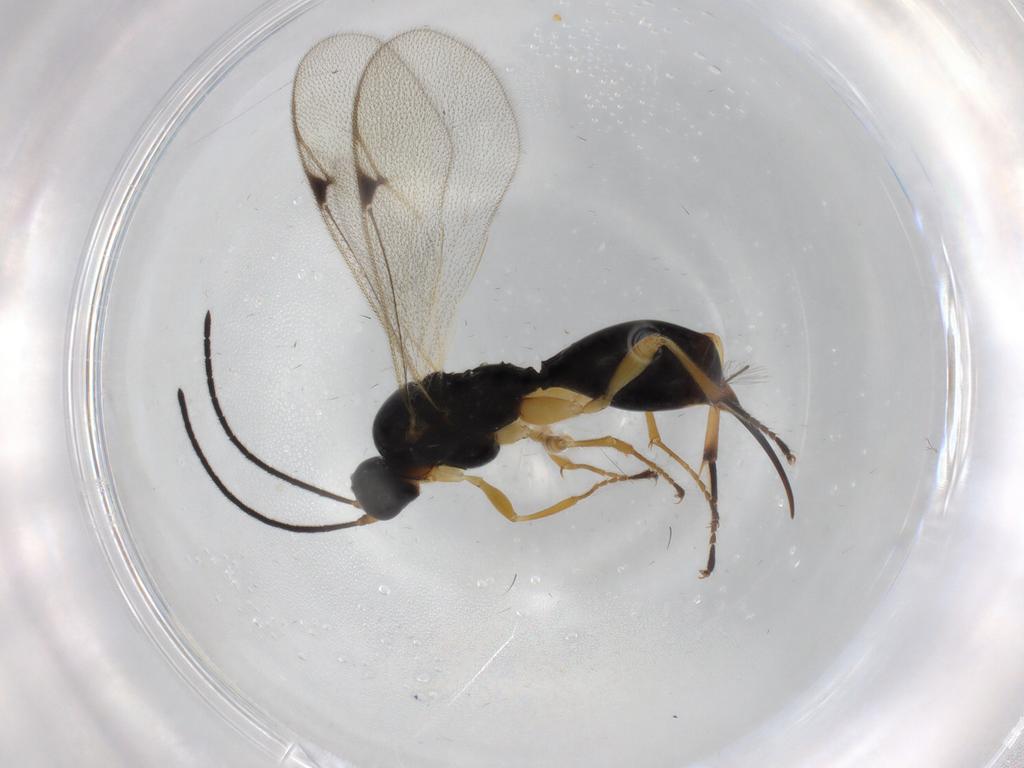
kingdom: Animalia
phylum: Arthropoda
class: Insecta
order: Hymenoptera
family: Proctotrupidae
